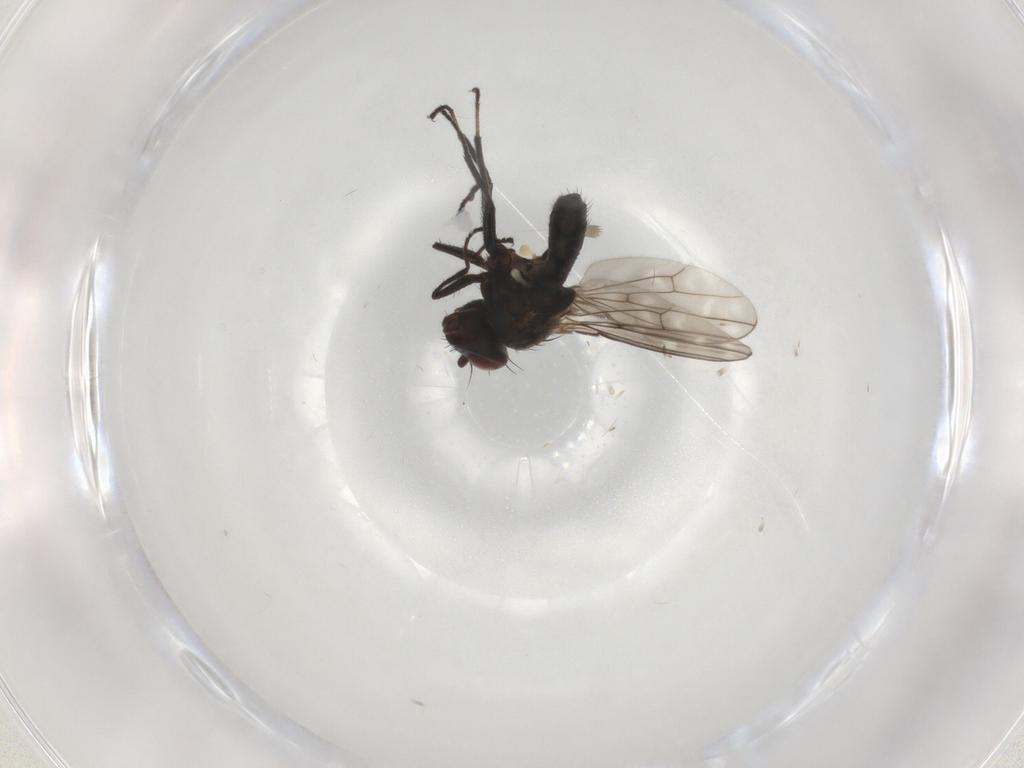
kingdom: Animalia
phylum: Arthropoda
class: Insecta
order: Diptera
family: Ephydridae
